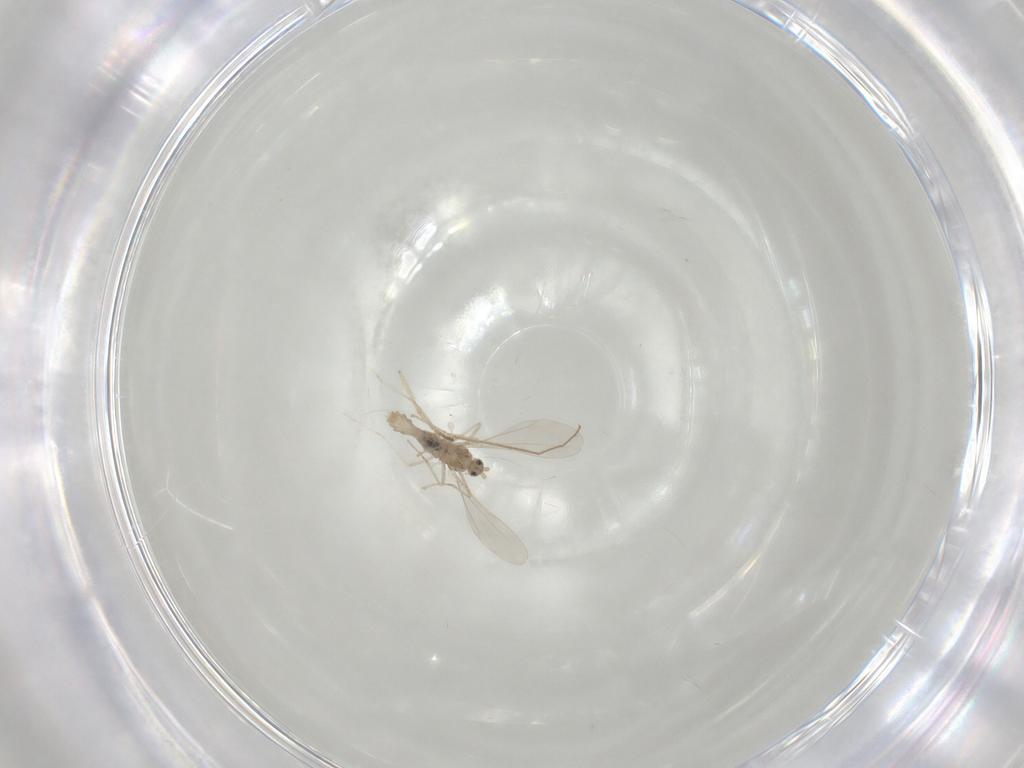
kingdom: Animalia
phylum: Arthropoda
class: Insecta
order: Diptera
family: Cecidomyiidae
